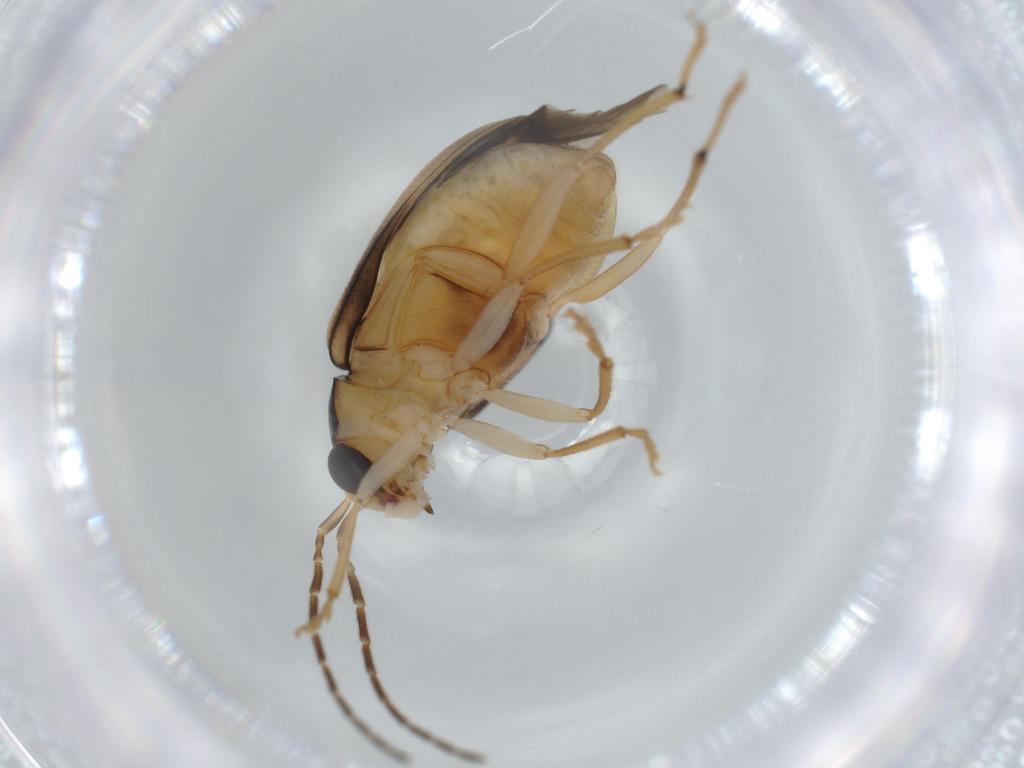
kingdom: Animalia
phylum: Arthropoda
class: Insecta
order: Coleoptera
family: Chrysomelidae
